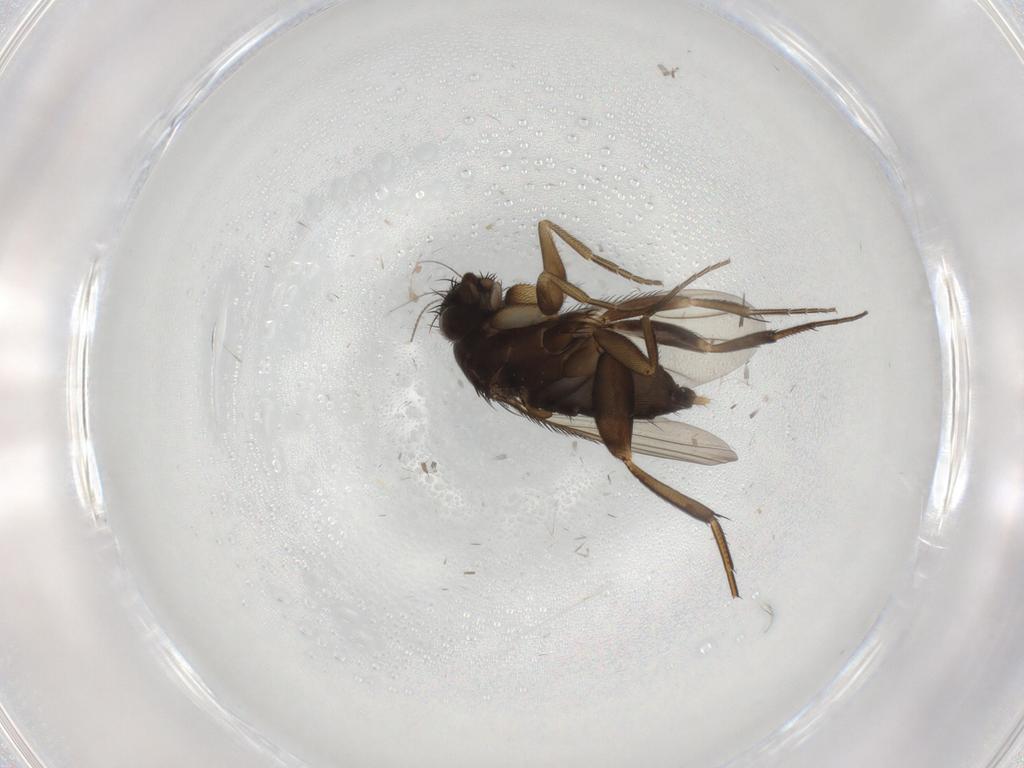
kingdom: Animalia
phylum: Arthropoda
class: Insecta
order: Diptera
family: Phoridae
